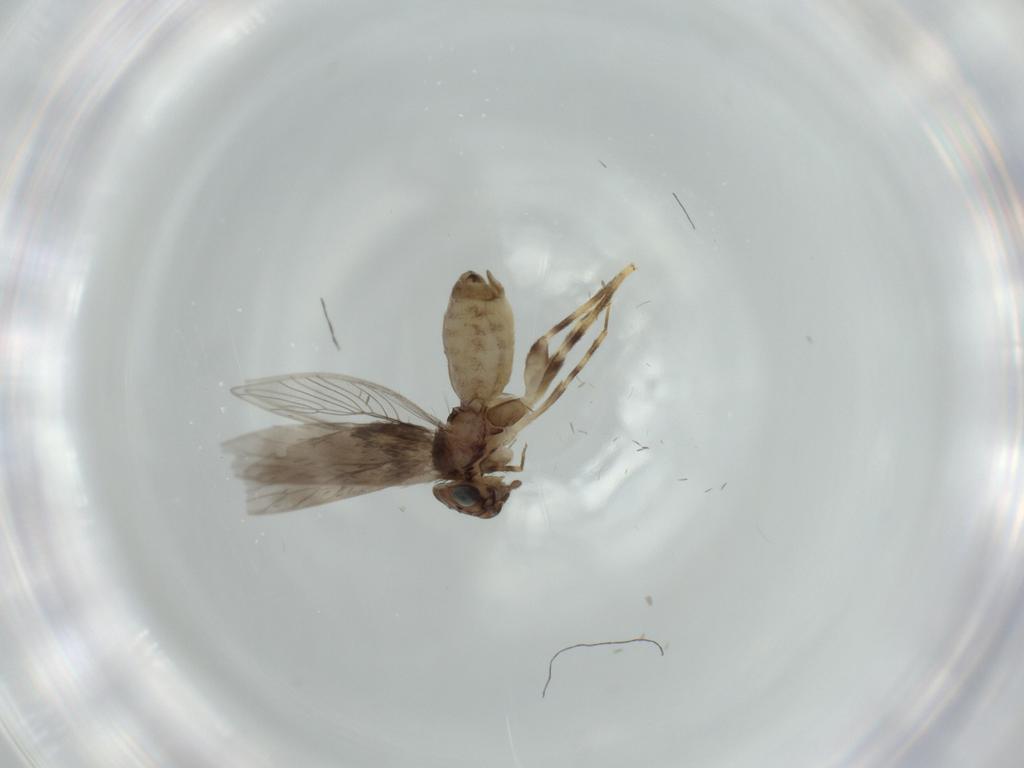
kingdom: Animalia
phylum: Arthropoda
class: Insecta
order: Psocodea
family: Lepidopsocidae
